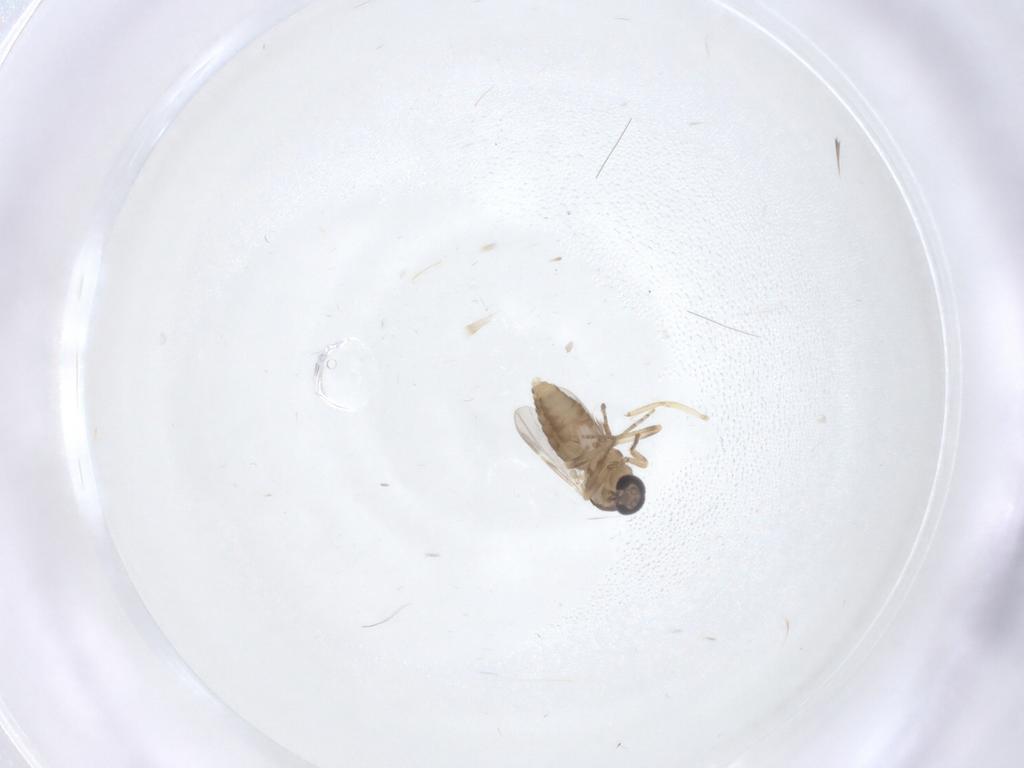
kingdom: Animalia
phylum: Arthropoda
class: Insecta
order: Diptera
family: Ceratopogonidae
